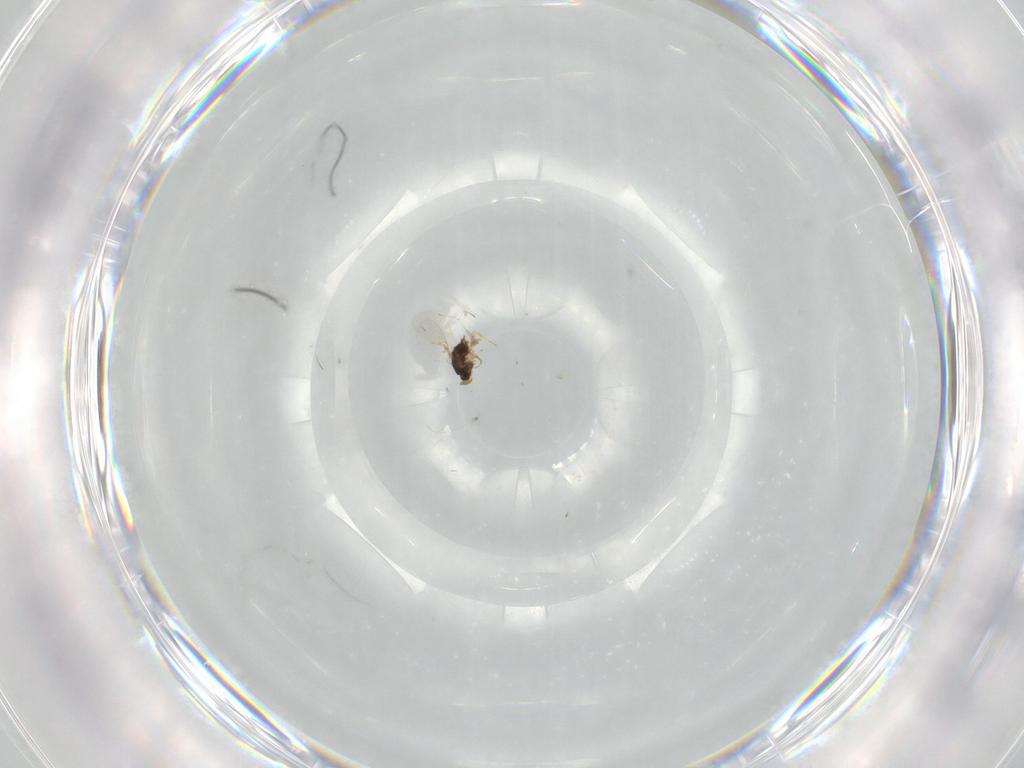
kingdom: Animalia
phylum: Arthropoda
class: Insecta
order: Hymenoptera
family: Encyrtidae
